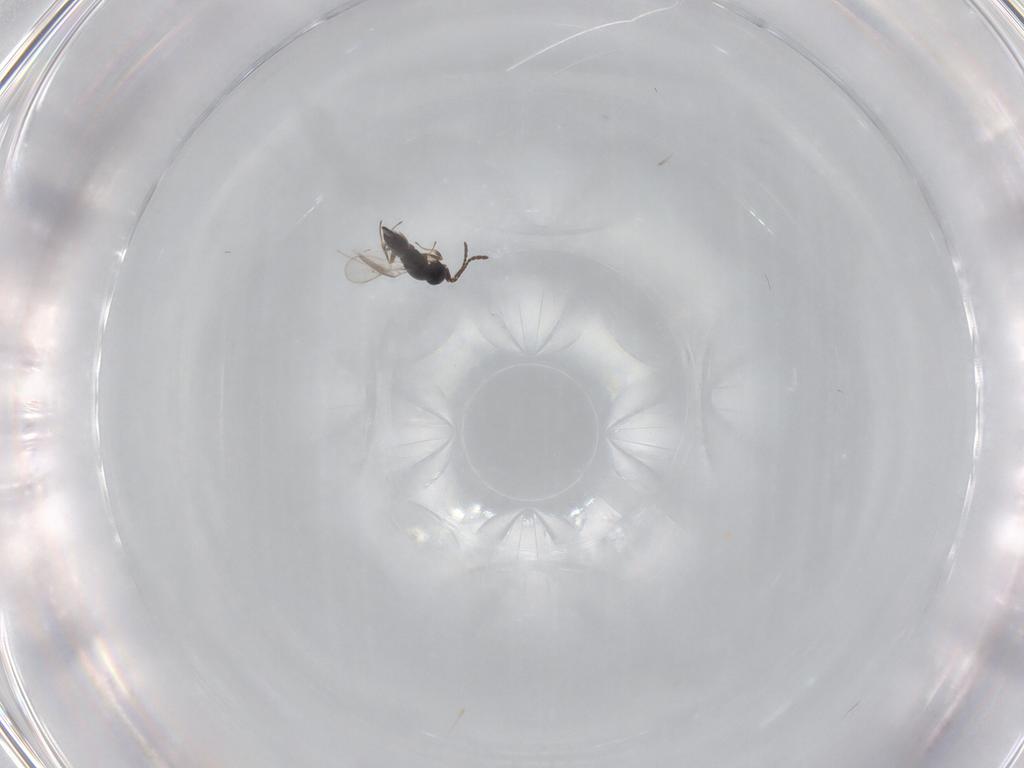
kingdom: Animalia
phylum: Arthropoda
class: Insecta
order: Hymenoptera
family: Scelionidae
